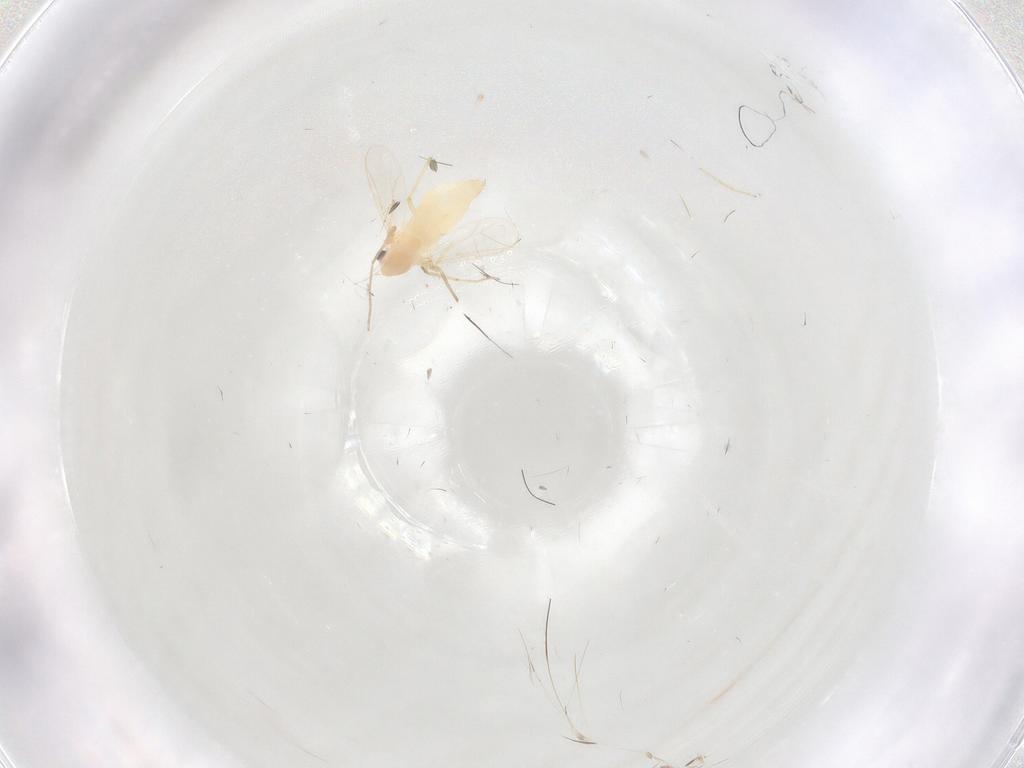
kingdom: Animalia
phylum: Arthropoda
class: Insecta
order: Diptera
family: Chironomidae
